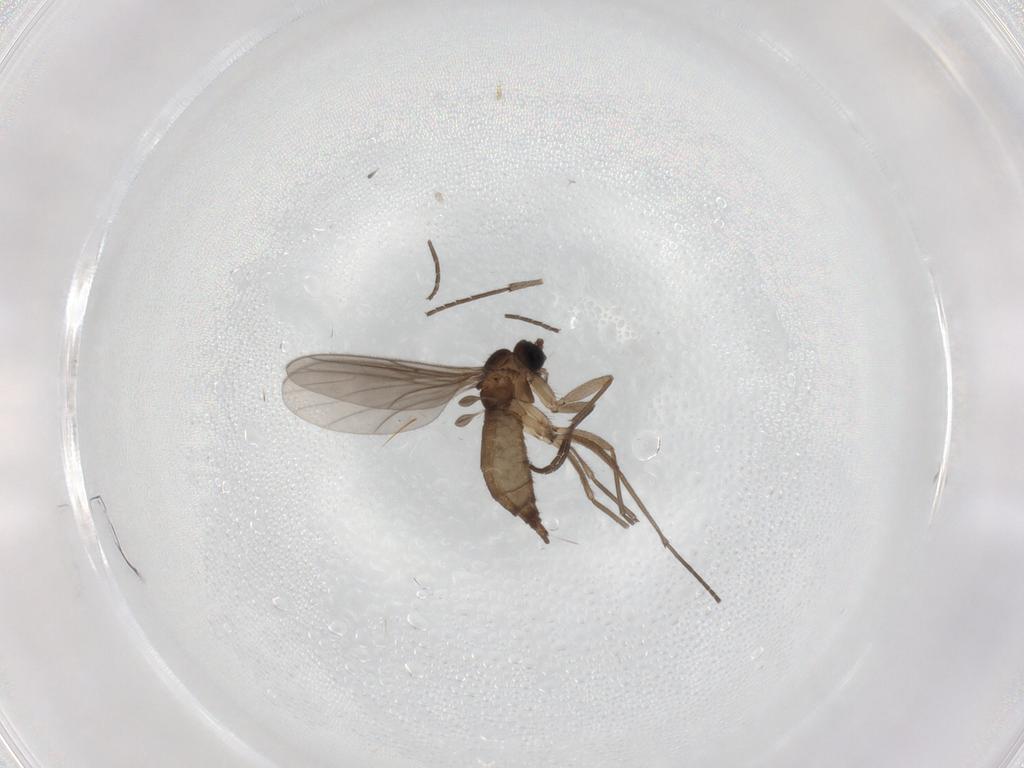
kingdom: Animalia
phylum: Arthropoda
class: Insecta
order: Diptera
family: Sciaridae
